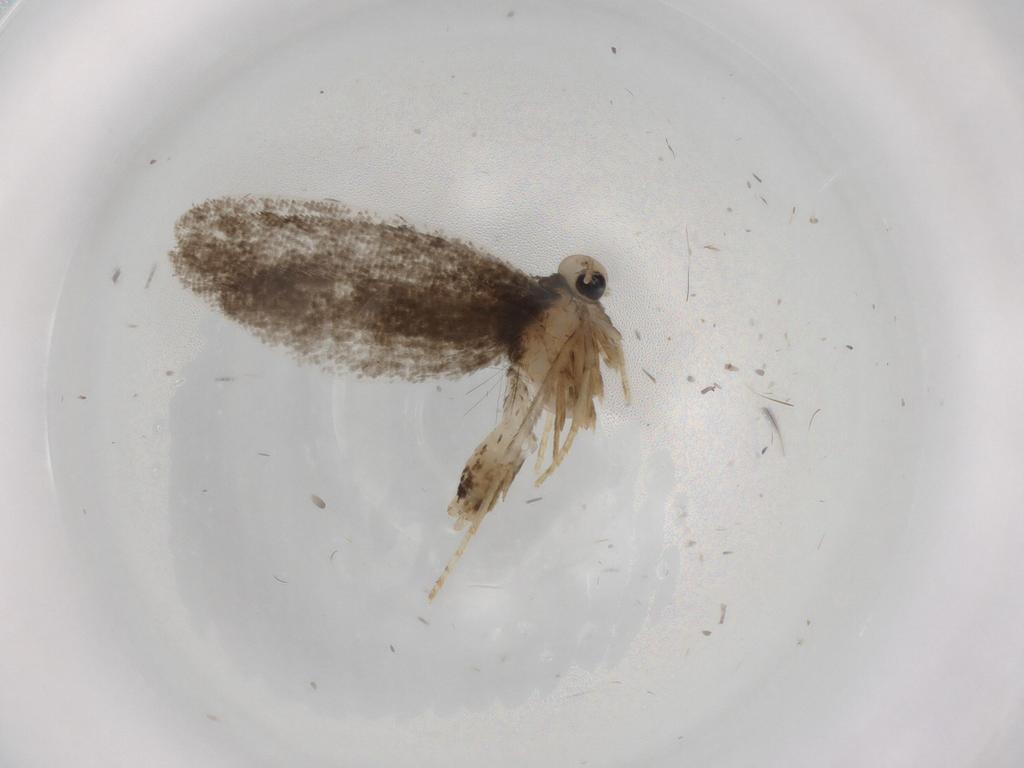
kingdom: Animalia
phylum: Arthropoda
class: Insecta
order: Lepidoptera
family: Psychidae
